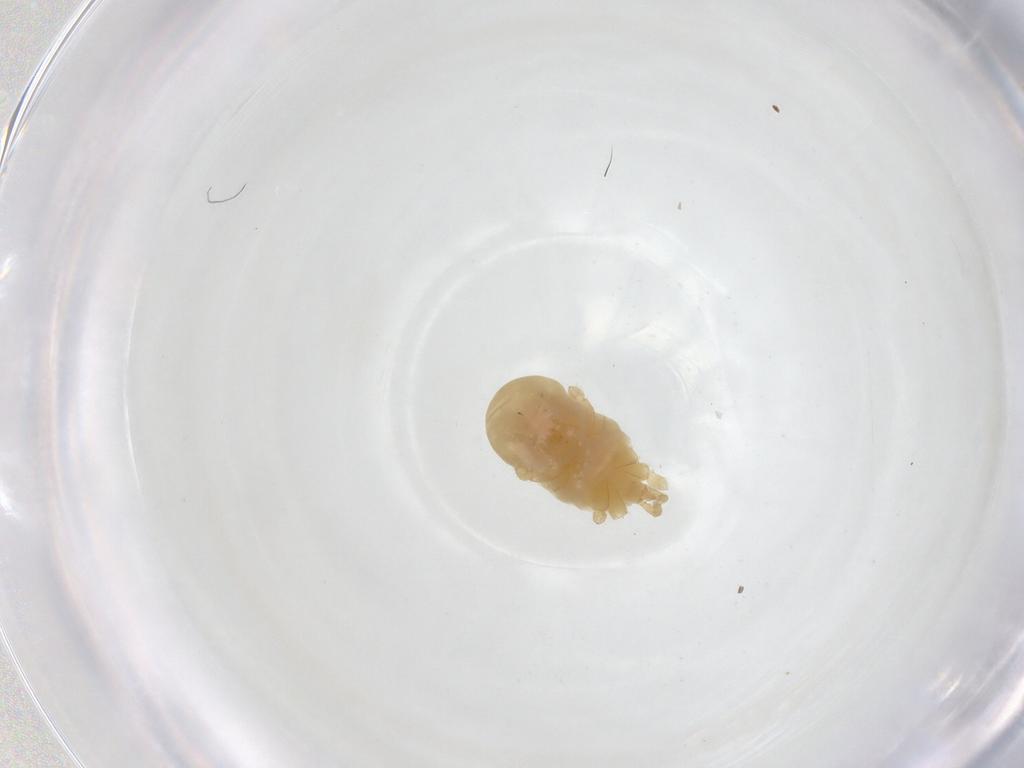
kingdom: Animalia
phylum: Arthropoda
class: Arachnida
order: Trombidiformes
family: Erythraeidae
